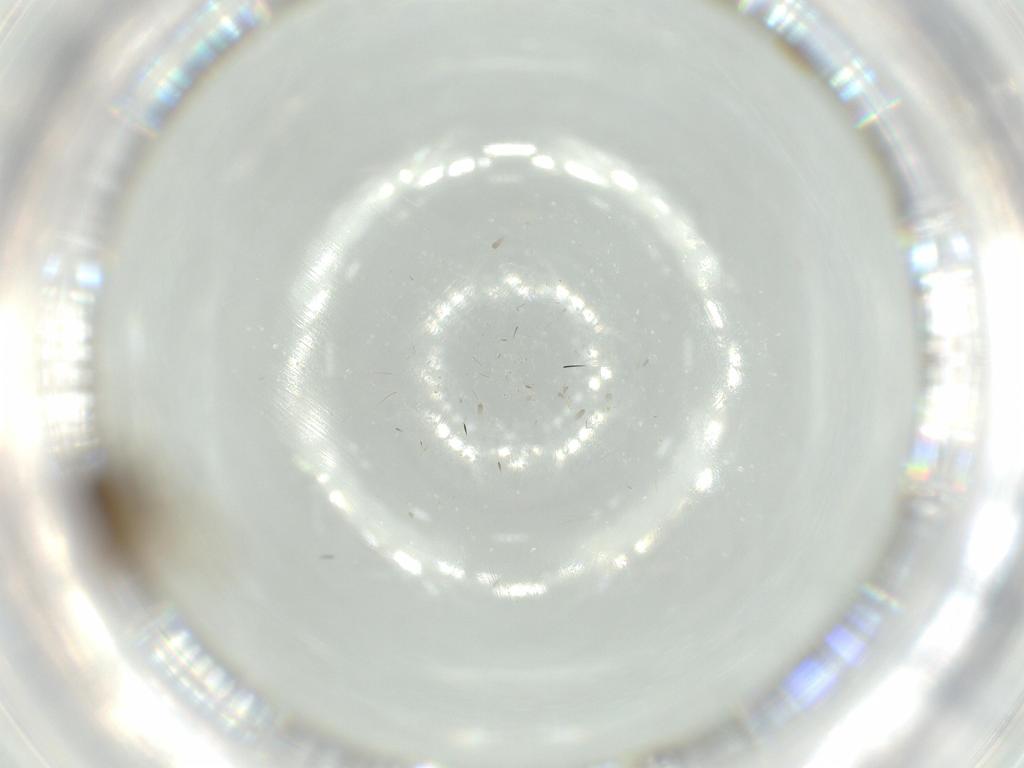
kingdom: Animalia
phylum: Arthropoda
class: Insecta
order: Diptera
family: Ceratopogonidae
